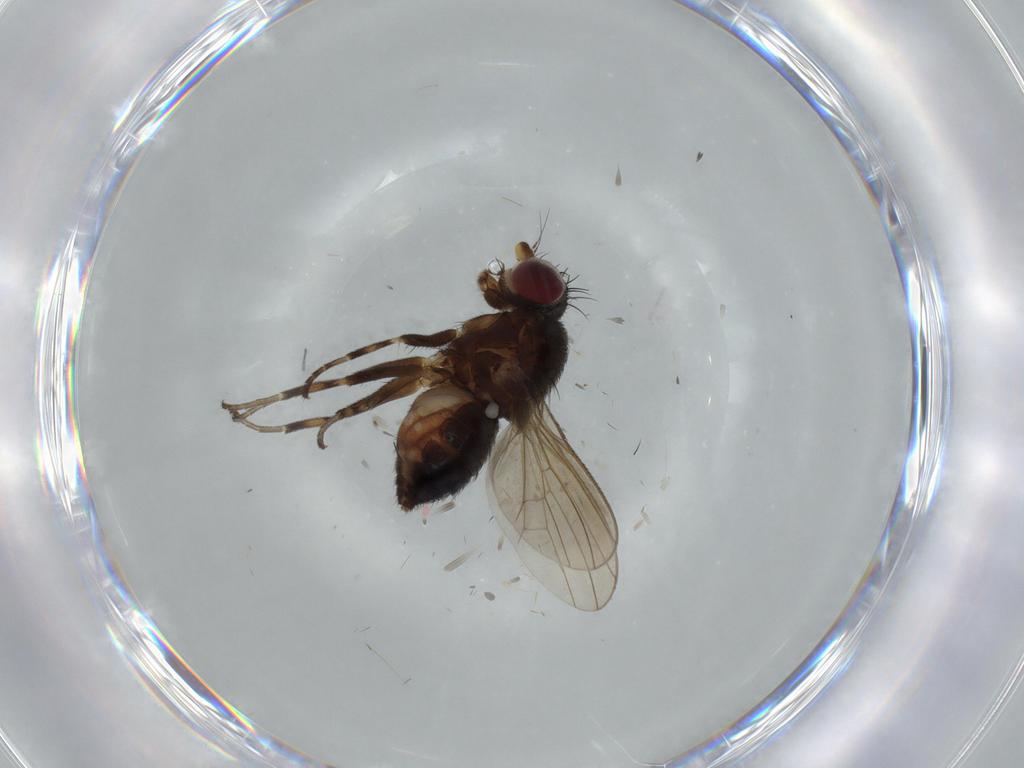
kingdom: Animalia
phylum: Arthropoda
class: Insecta
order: Diptera
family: Heleomyzidae
